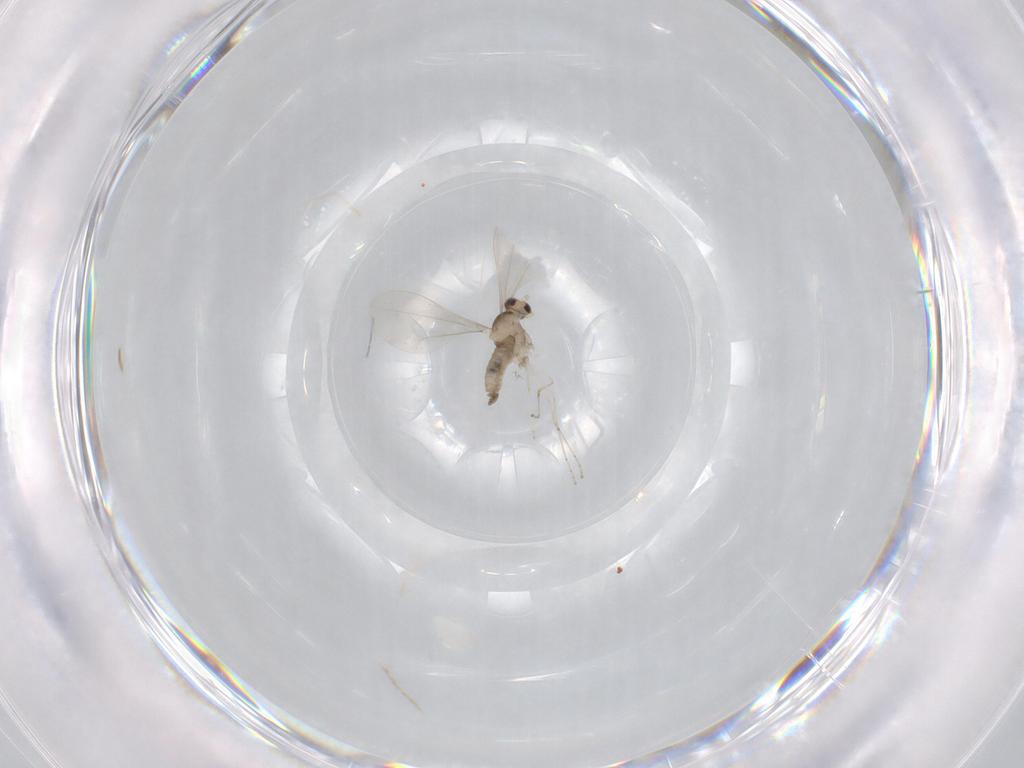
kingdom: Animalia
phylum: Arthropoda
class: Insecta
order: Diptera
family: Cecidomyiidae
